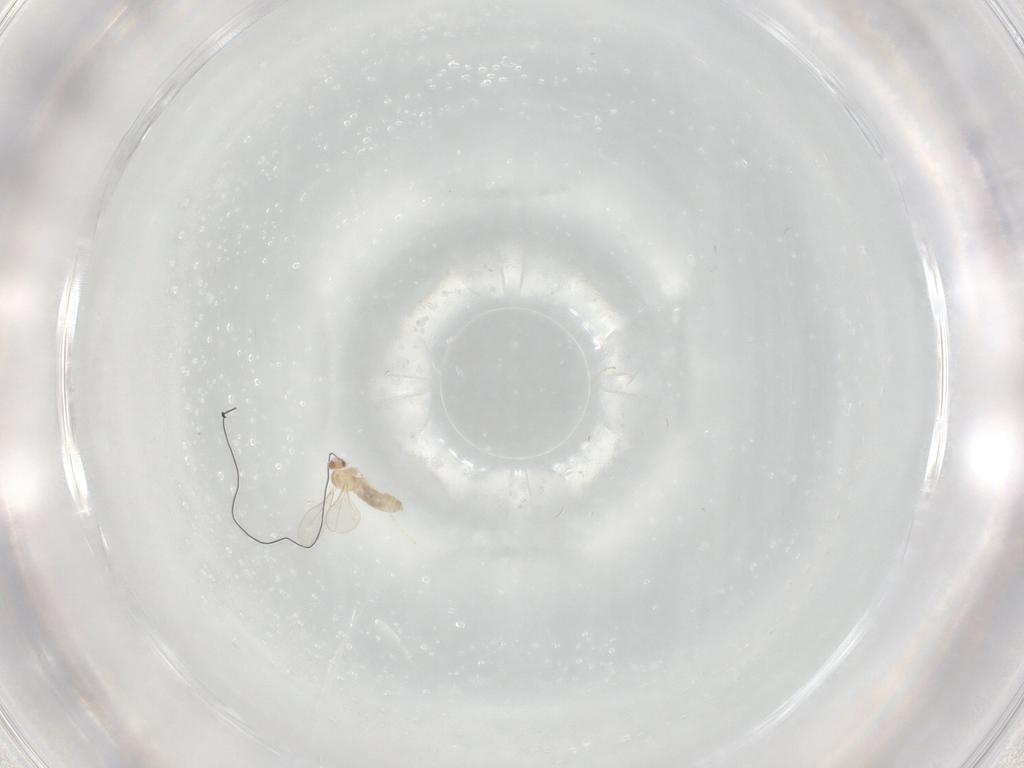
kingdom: Animalia
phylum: Arthropoda
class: Insecta
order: Diptera
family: Cecidomyiidae
